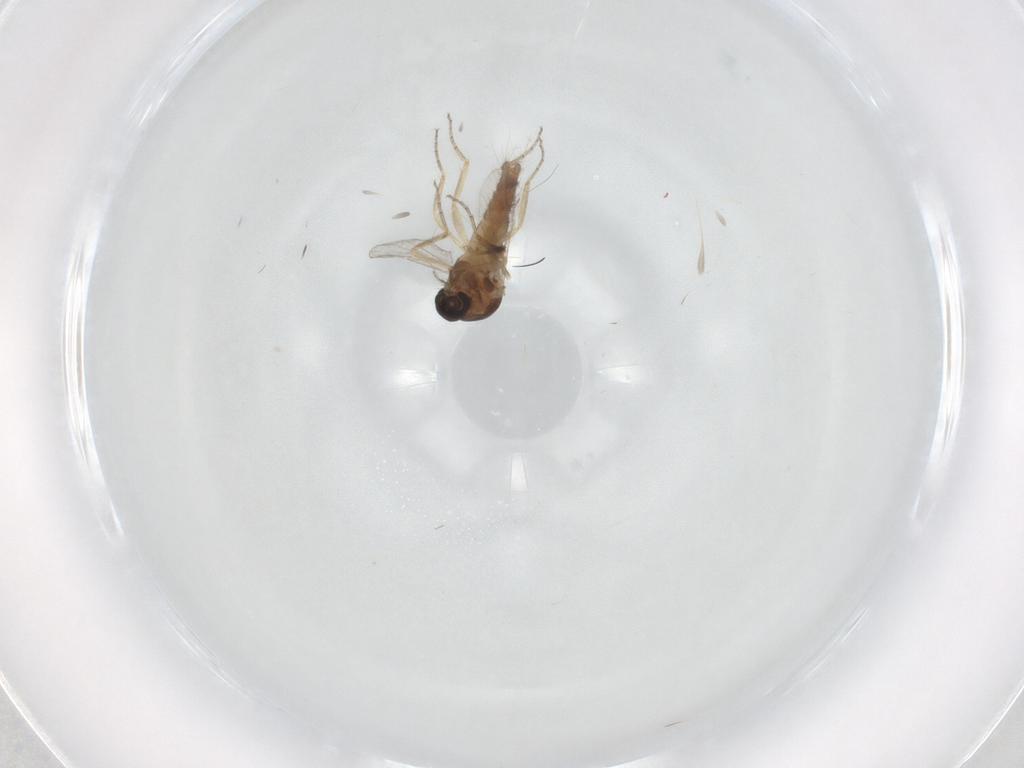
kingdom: Animalia
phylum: Arthropoda
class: Insecta
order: Diptera
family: Ceratopogonidae
